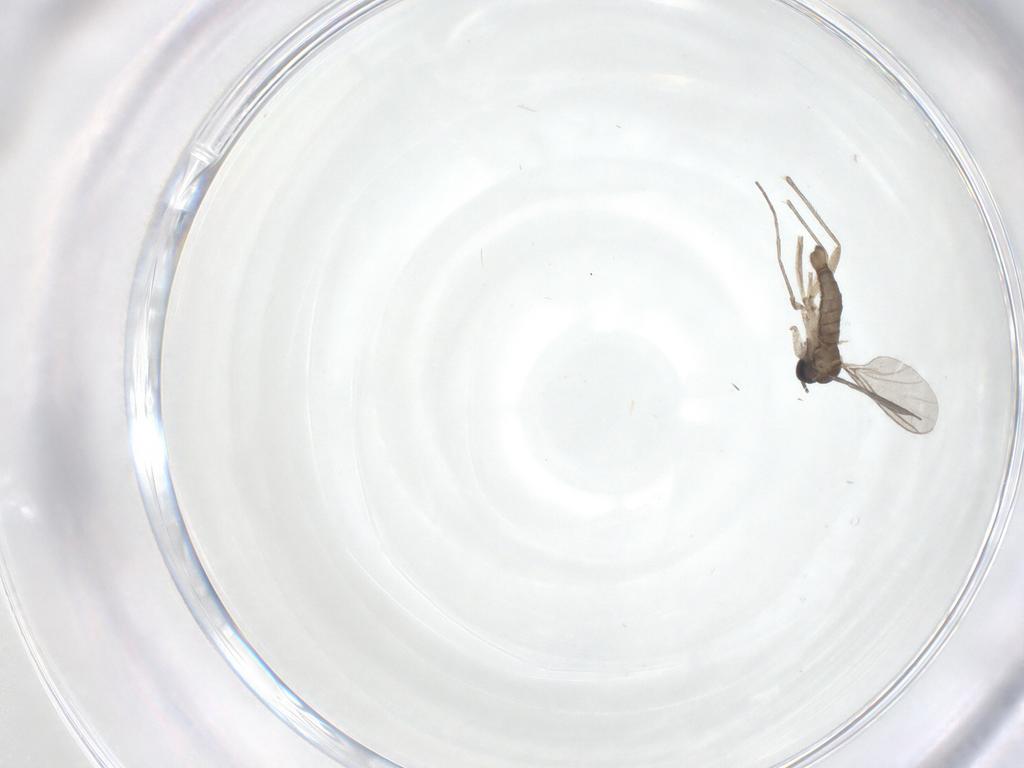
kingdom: Animalia
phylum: Arthropoda
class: Insecta
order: Diptera
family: Sciaridae
